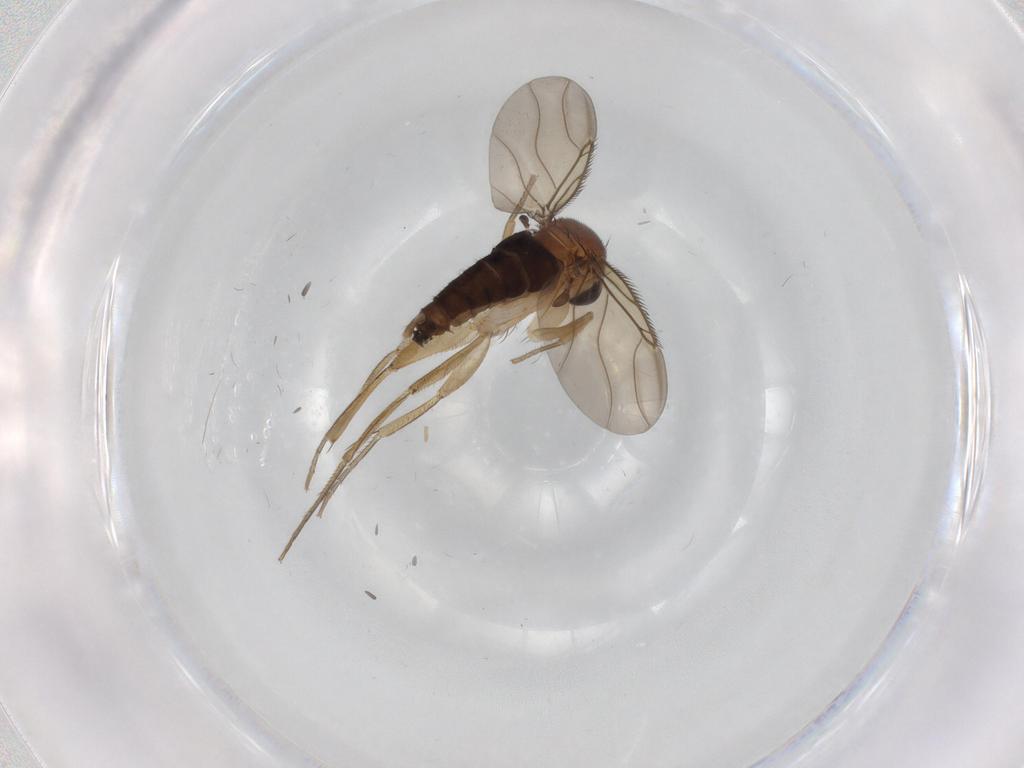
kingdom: Animalia
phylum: Arthropoda
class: Insecta
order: Diptera
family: Phoridae
